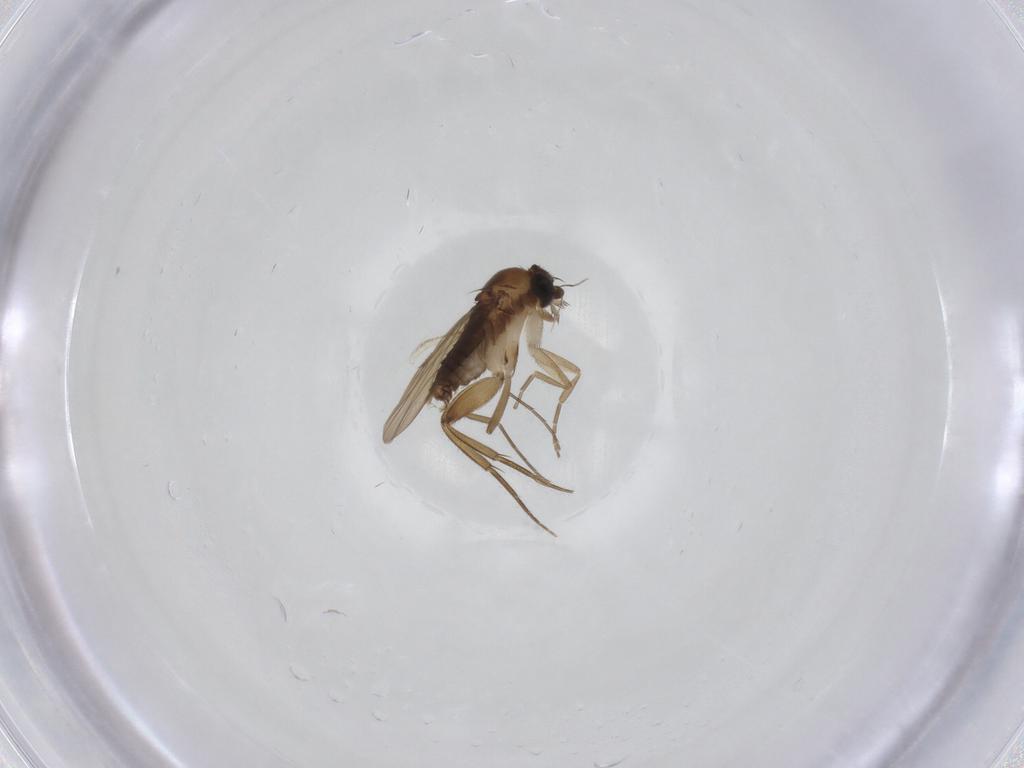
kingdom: Animalia
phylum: Arthropoda
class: Insecta
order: Diptera
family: Phoridae
